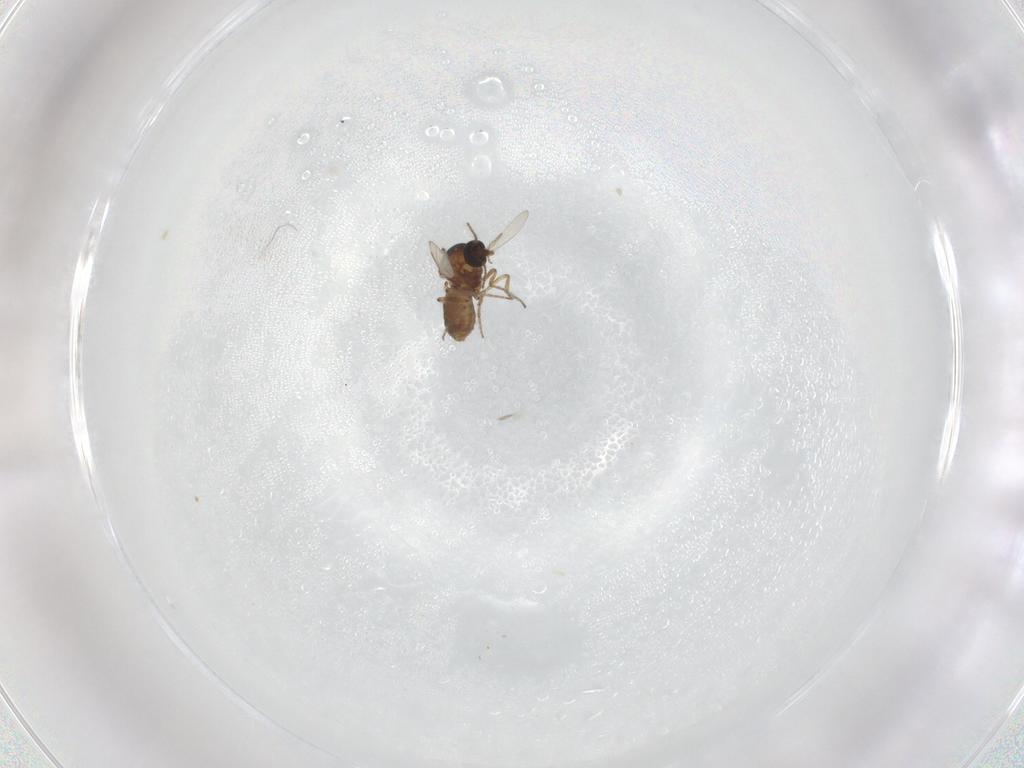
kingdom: Animalia
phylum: Arthropoda
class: Insecta
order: Diptera
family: Ceratopogonidae
